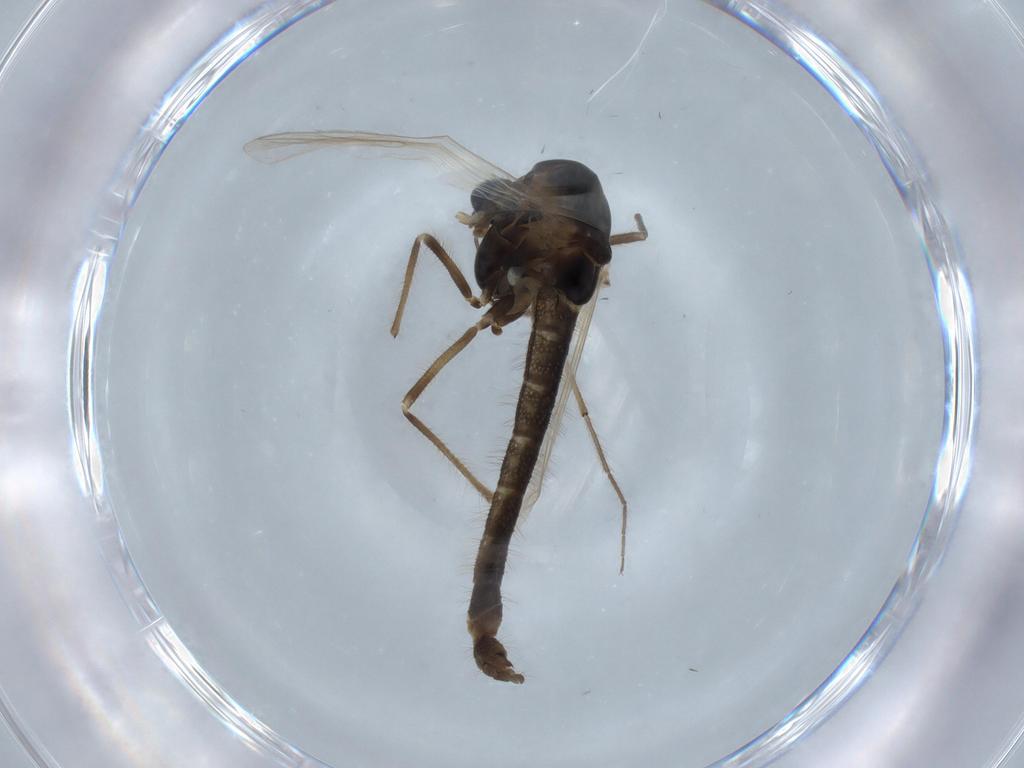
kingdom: Animalia
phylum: Arthropoda
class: Insecta
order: Diptera
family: Chironomidae
